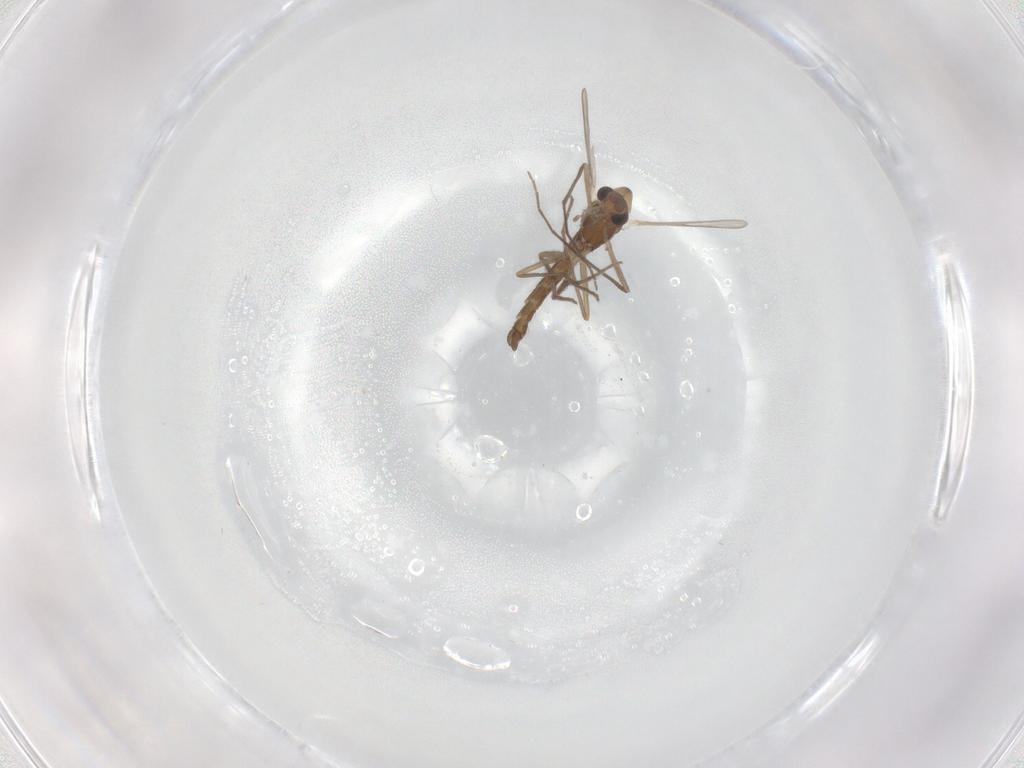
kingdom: Animalia
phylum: Arthropoda
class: Insecta
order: Diptera
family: Chironomidae
